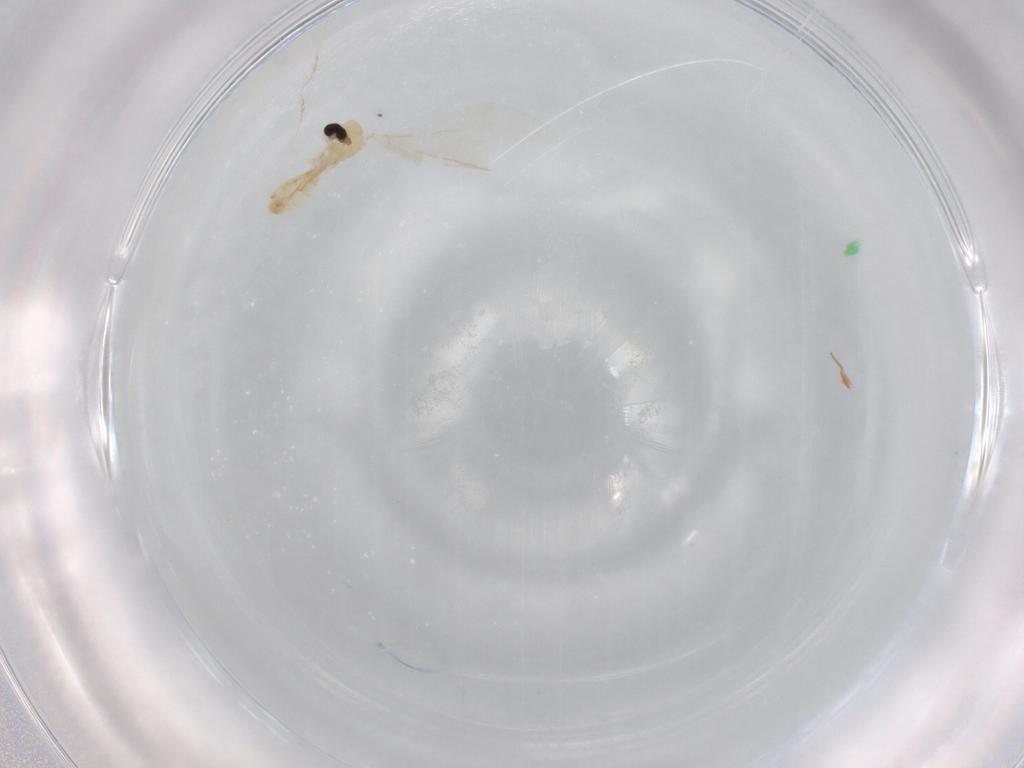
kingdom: Animalia
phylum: Arthropoda
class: Insecta
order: Diptera
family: Cecidomyiidae
